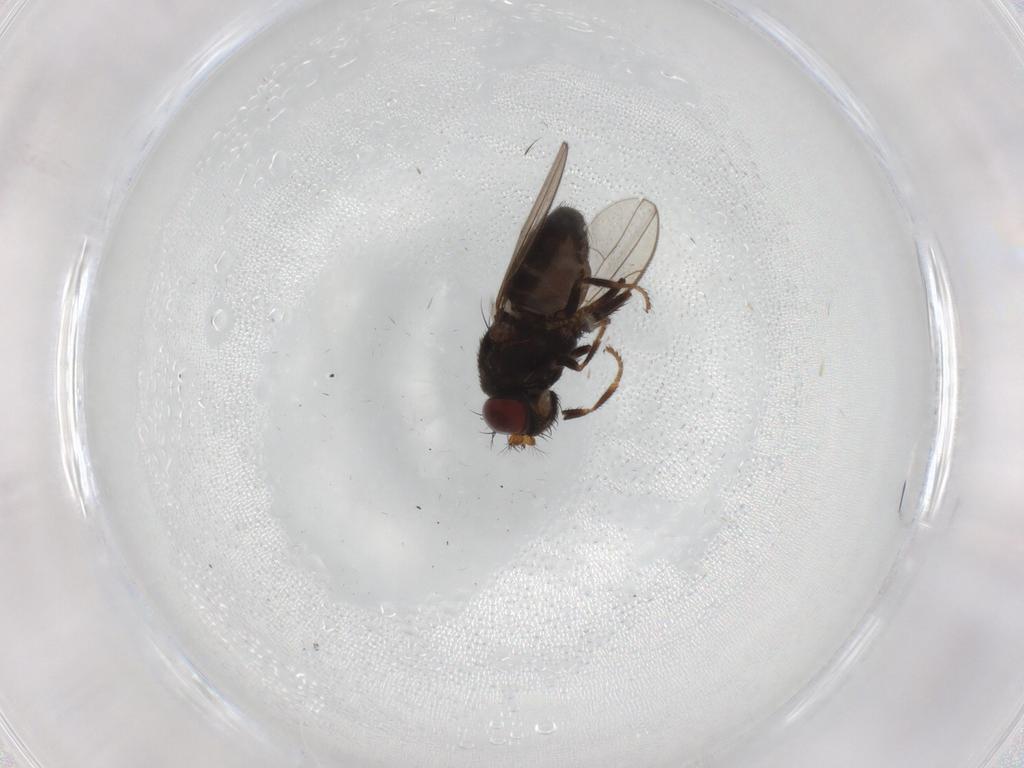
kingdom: Animalia
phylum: Arthropoda
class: Insecta
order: Diptera
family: Ceratopogonidae
